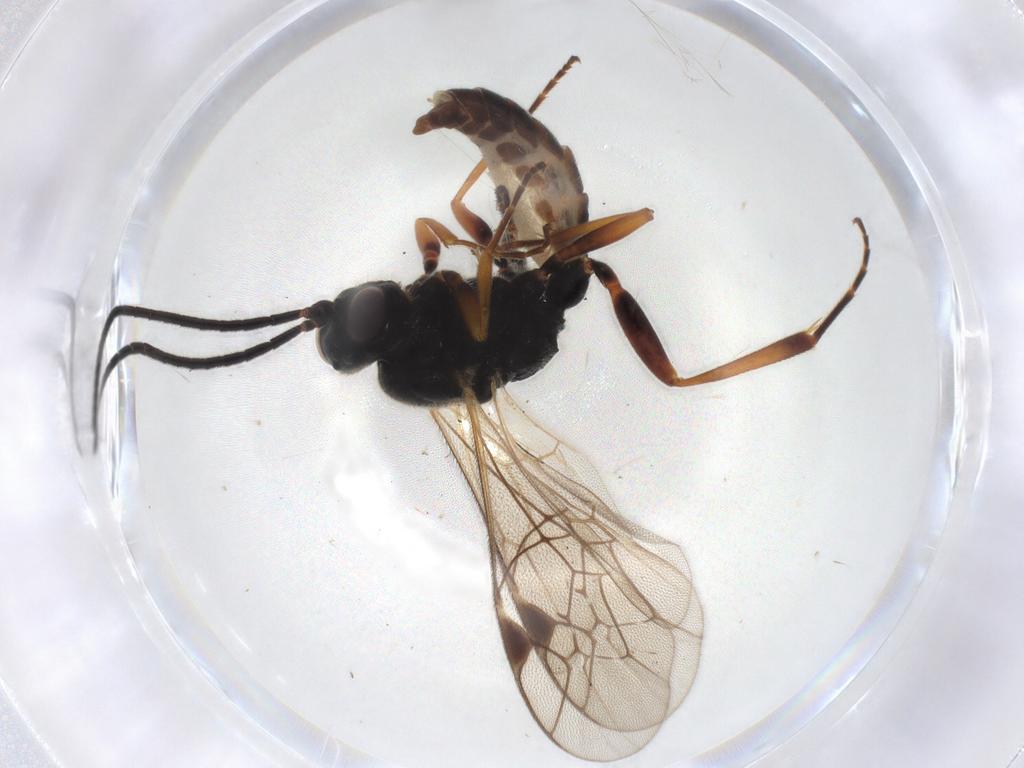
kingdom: Animalia
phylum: Arthropoda
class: Insecta
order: Hymenoptera
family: Ichneumonidae
